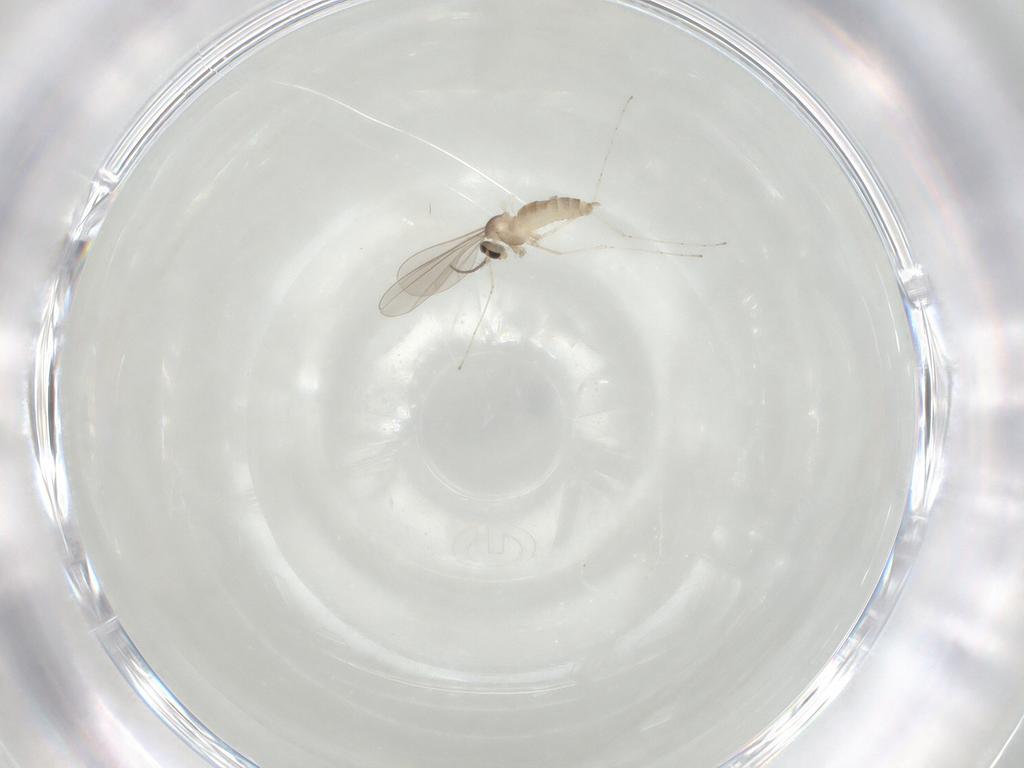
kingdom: Animalia
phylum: Arthropoda
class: Insecta
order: Diptera
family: Cecidomyiidae
